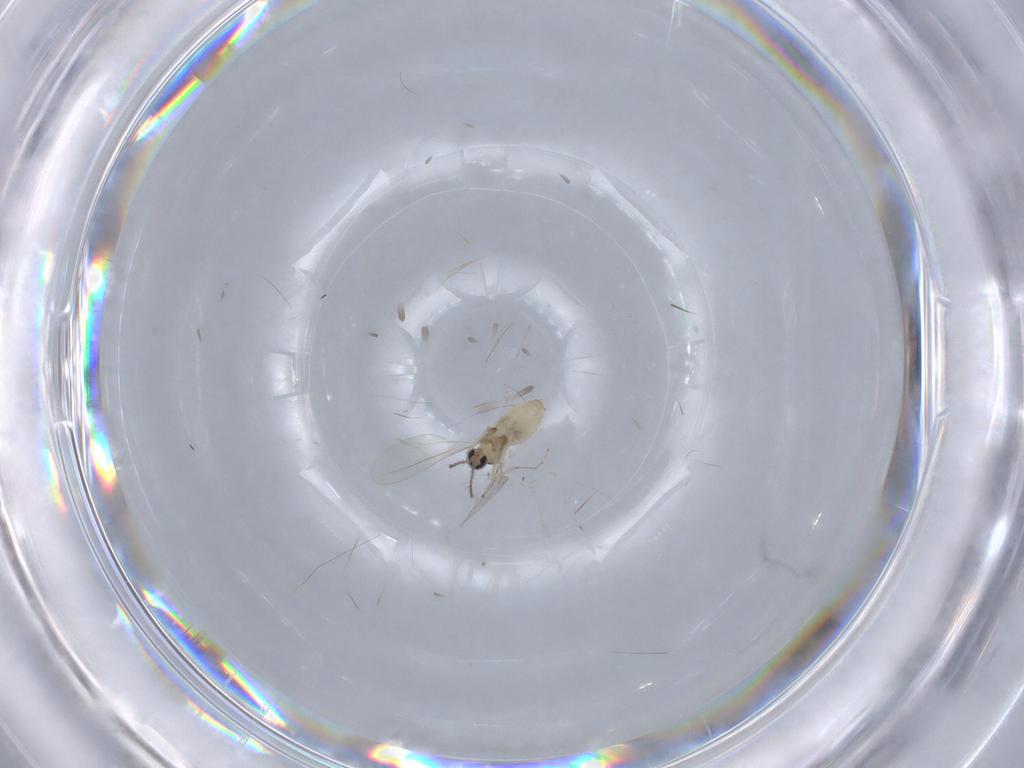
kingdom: Animalia
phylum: Arthropoda
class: Insecta
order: Diptera
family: Cecidomyiidae
